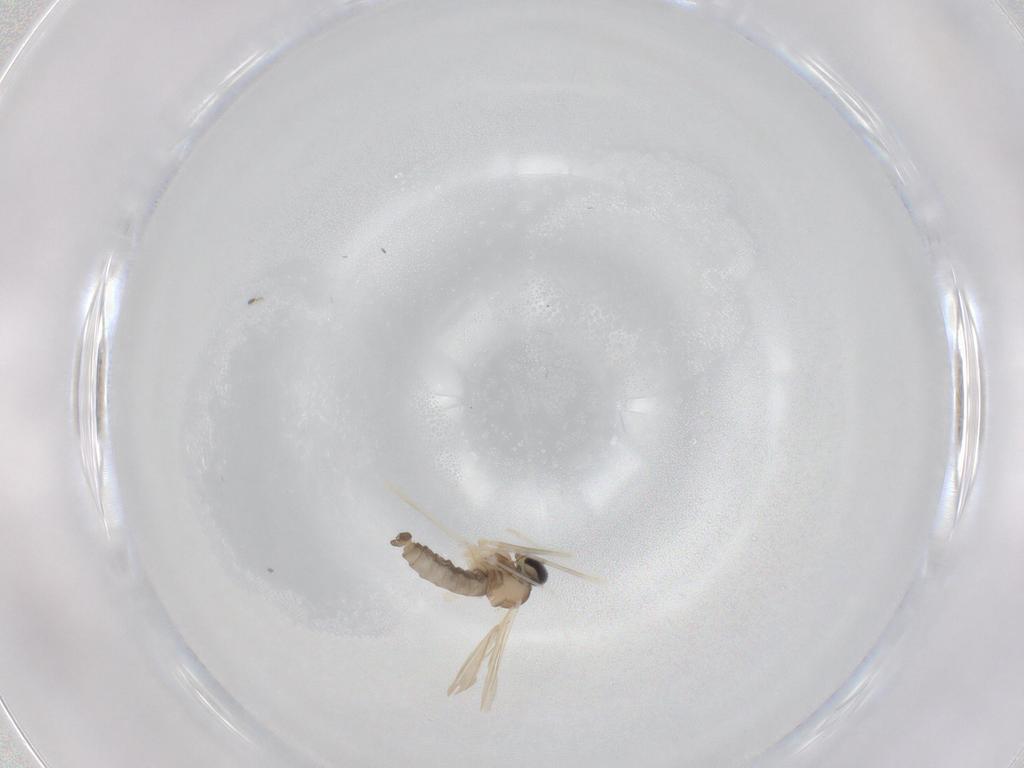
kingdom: Animalia
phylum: Arthropoda
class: Insecta
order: Diptera
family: Cecidomyiidae
